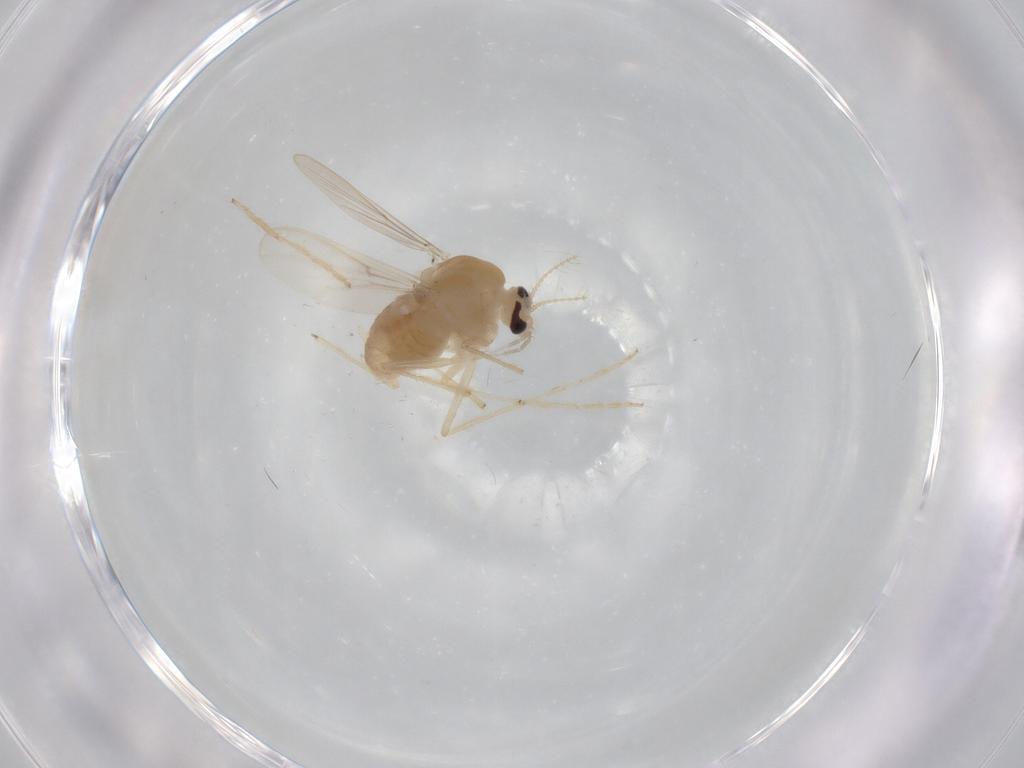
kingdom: Animalia
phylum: Arthropoda
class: Insecta
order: Diptera
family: Chironomidae
